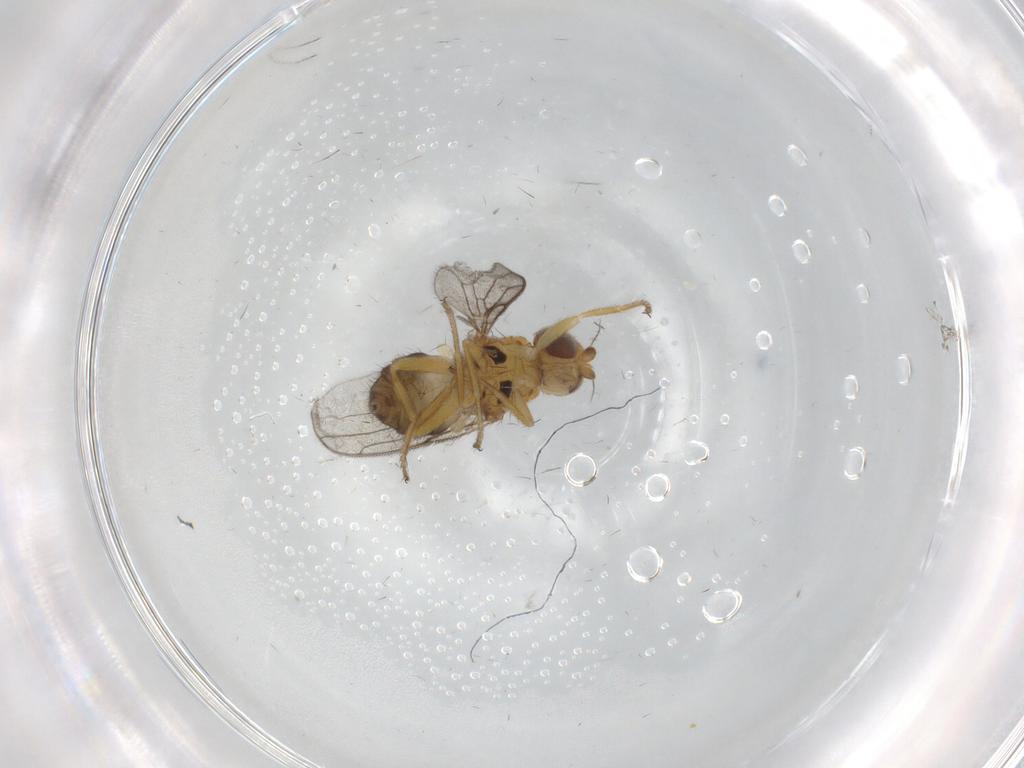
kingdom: Animalia
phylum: Arthropoda
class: Insecta
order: Diptera
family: Chloropidae
